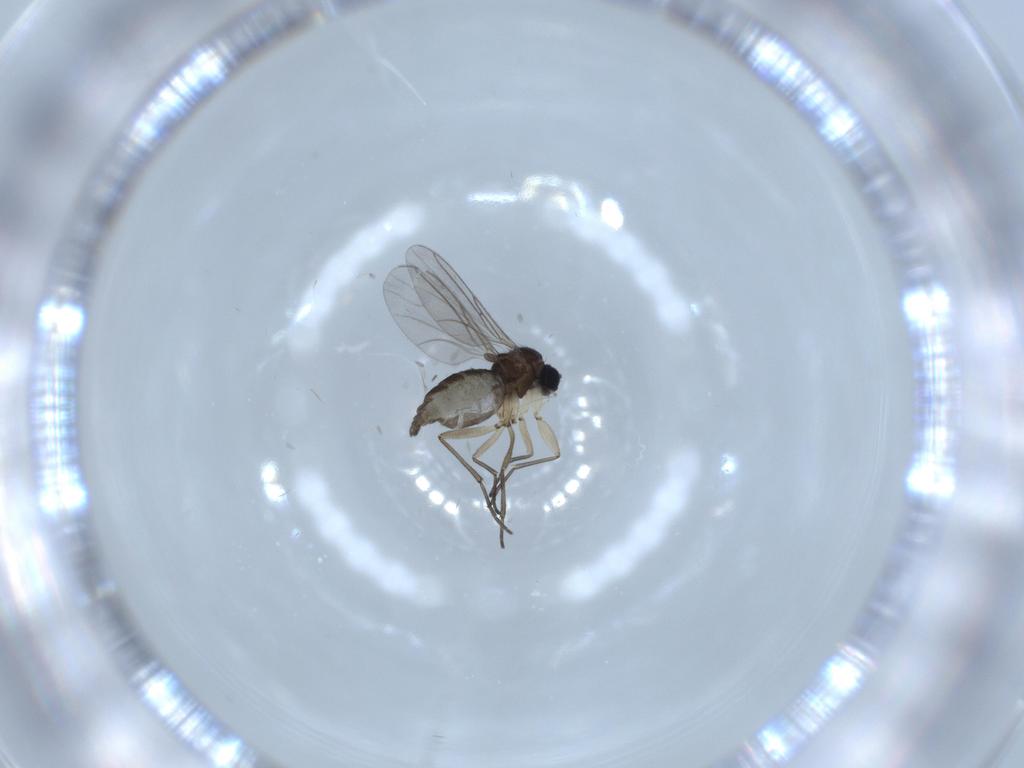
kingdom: Animalia
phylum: Arthropoda
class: Insecta
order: Diptera
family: Sciaridae
